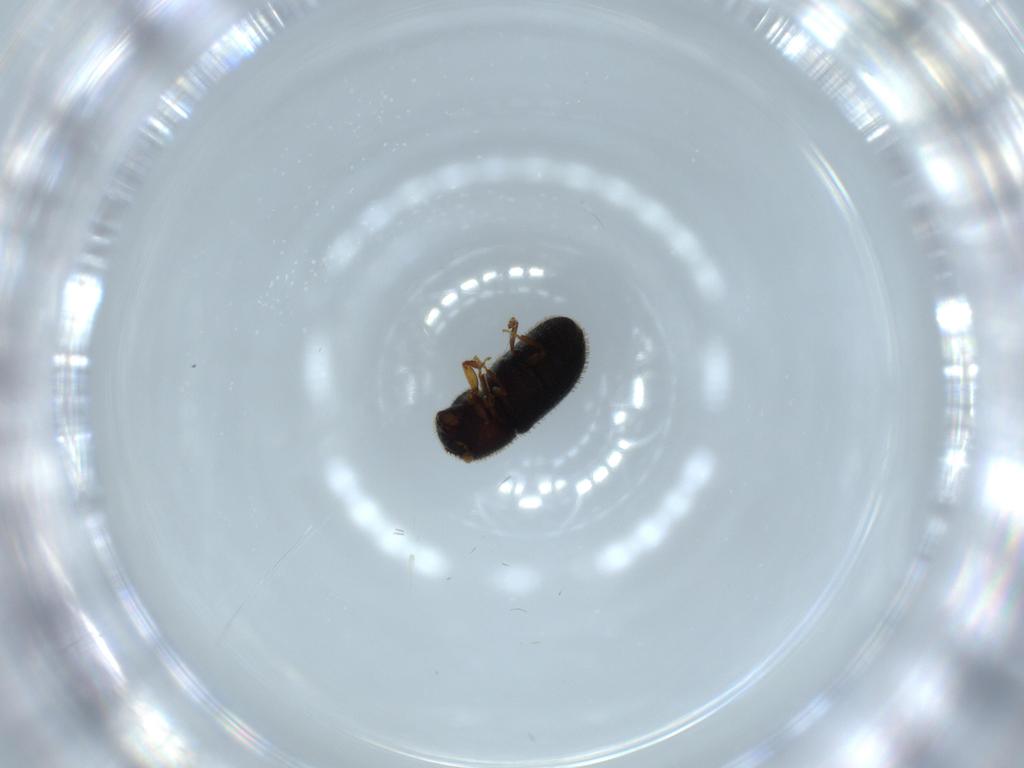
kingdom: Animalia
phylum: Arthropoda
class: Insecta
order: Coleoptera
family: Curculionidae
